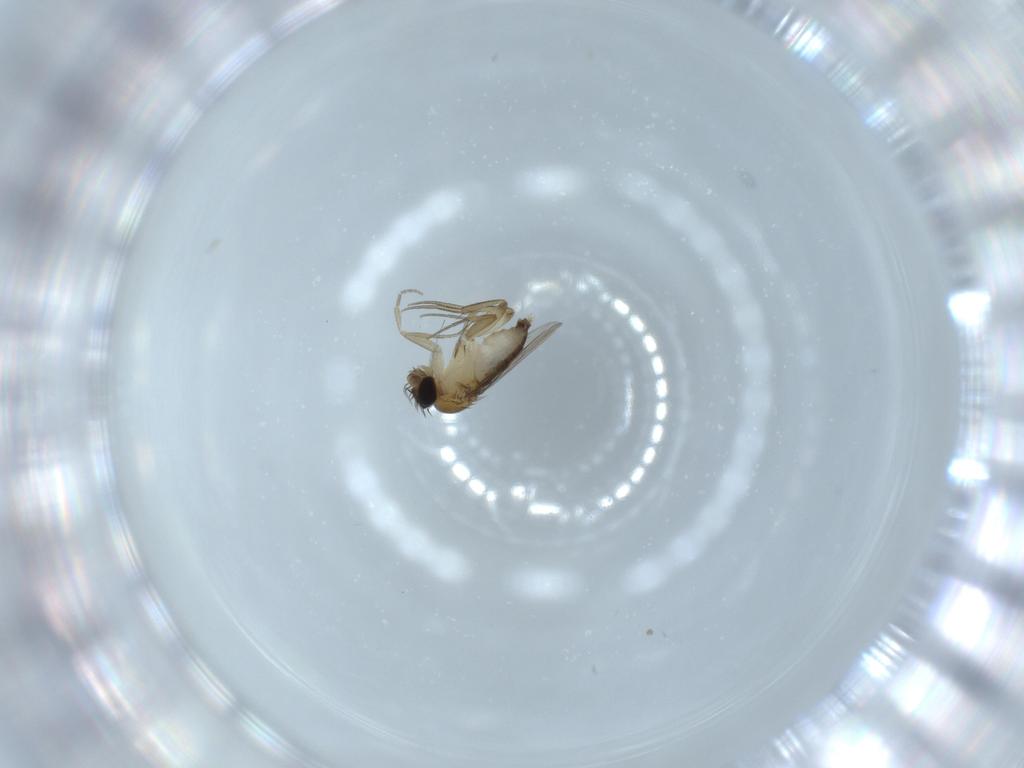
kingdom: Animalia
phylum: Arthropoda
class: Insecta
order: Diptera
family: Phoridae
